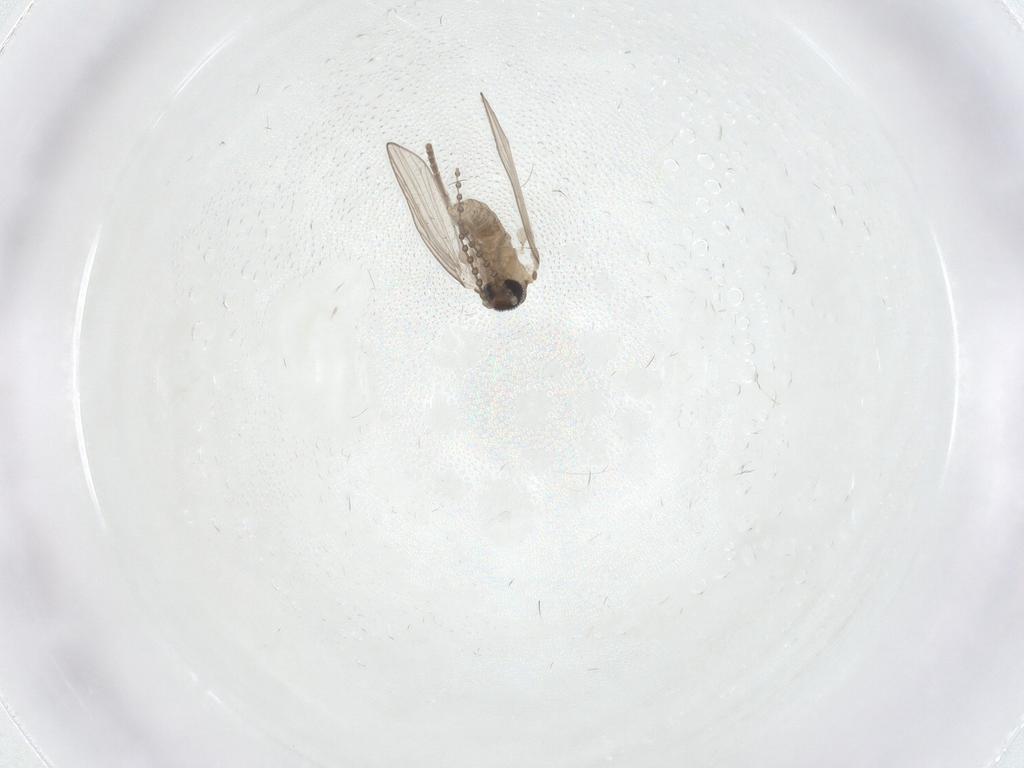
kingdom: Animalia
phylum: Arthropoda
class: Insecta
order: Diptera
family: Psychodidae
